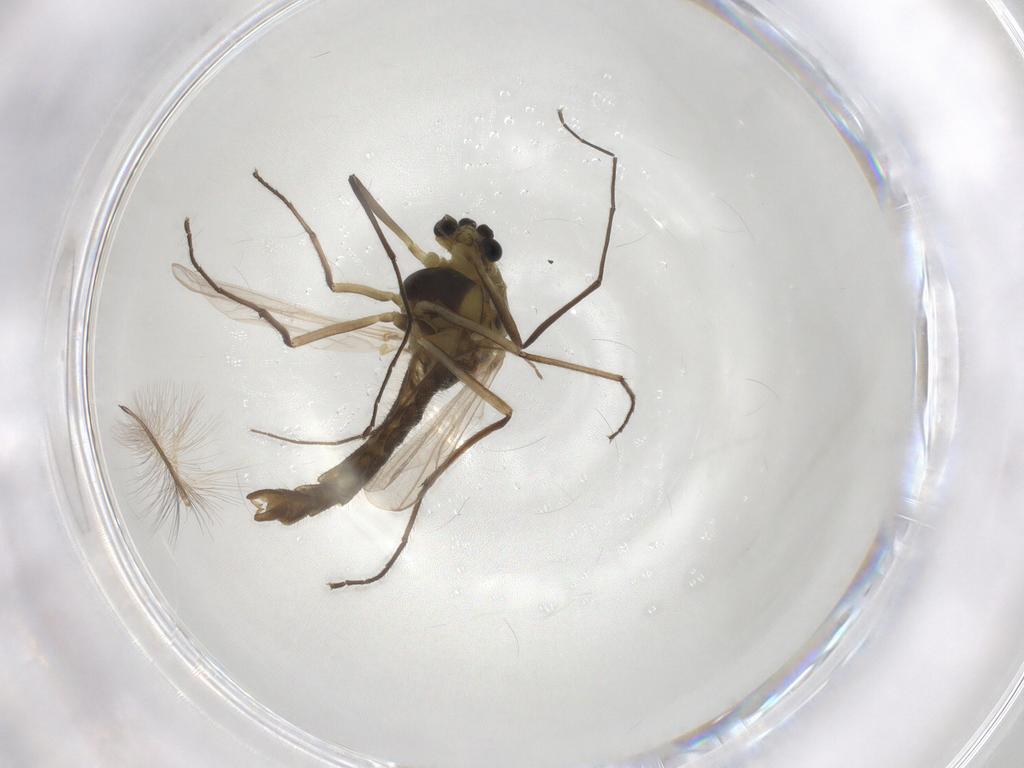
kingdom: Animalia
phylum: Arthropoda
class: Insecta
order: Diptera
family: Chironomidae
